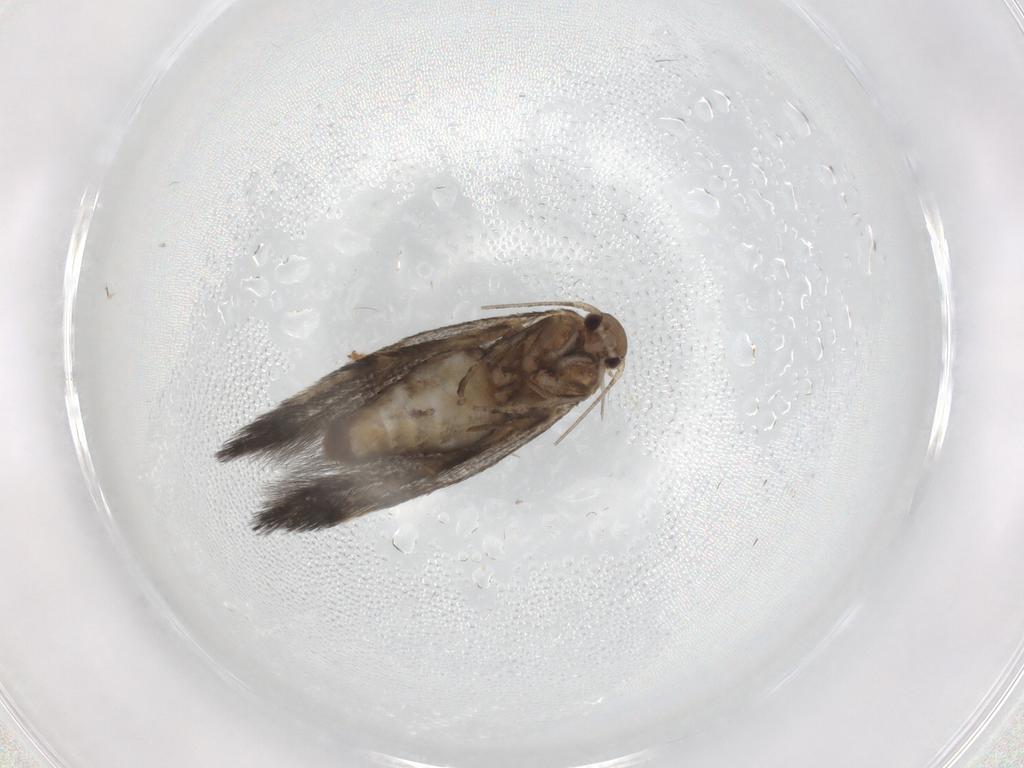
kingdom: Animalia
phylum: Arthropoda
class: Insecta
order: Lepidoptera
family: Elachistidae
